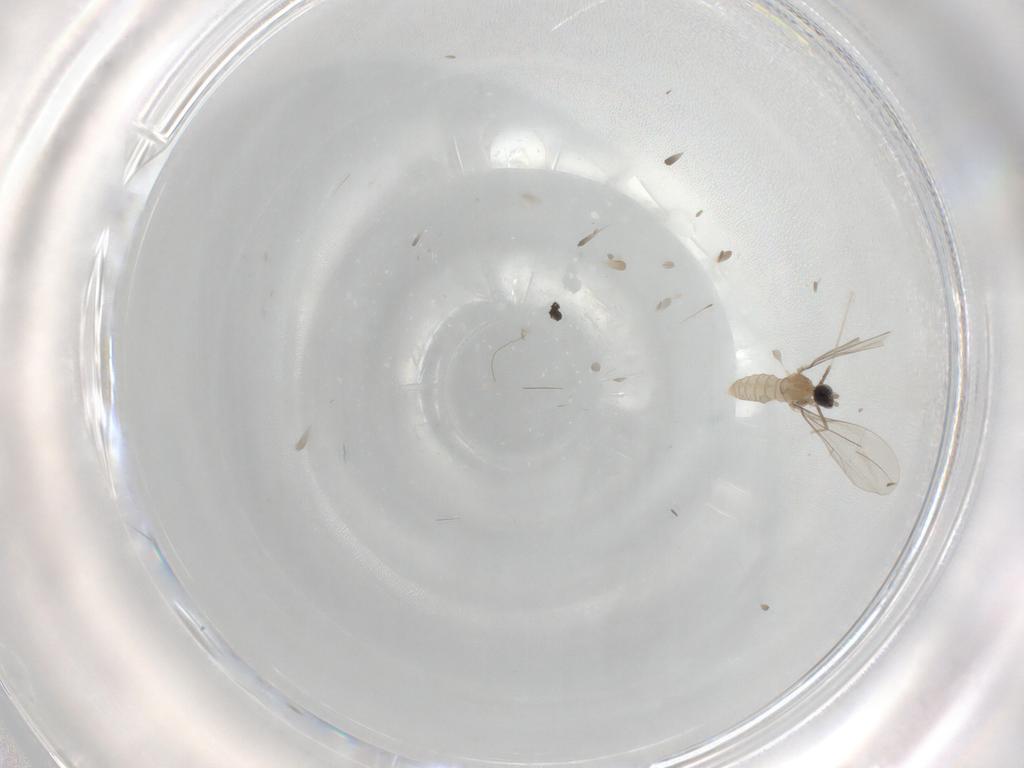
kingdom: Animalia
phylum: Arthropoda
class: Insecta
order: Diptera
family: Cecidomyiidae
